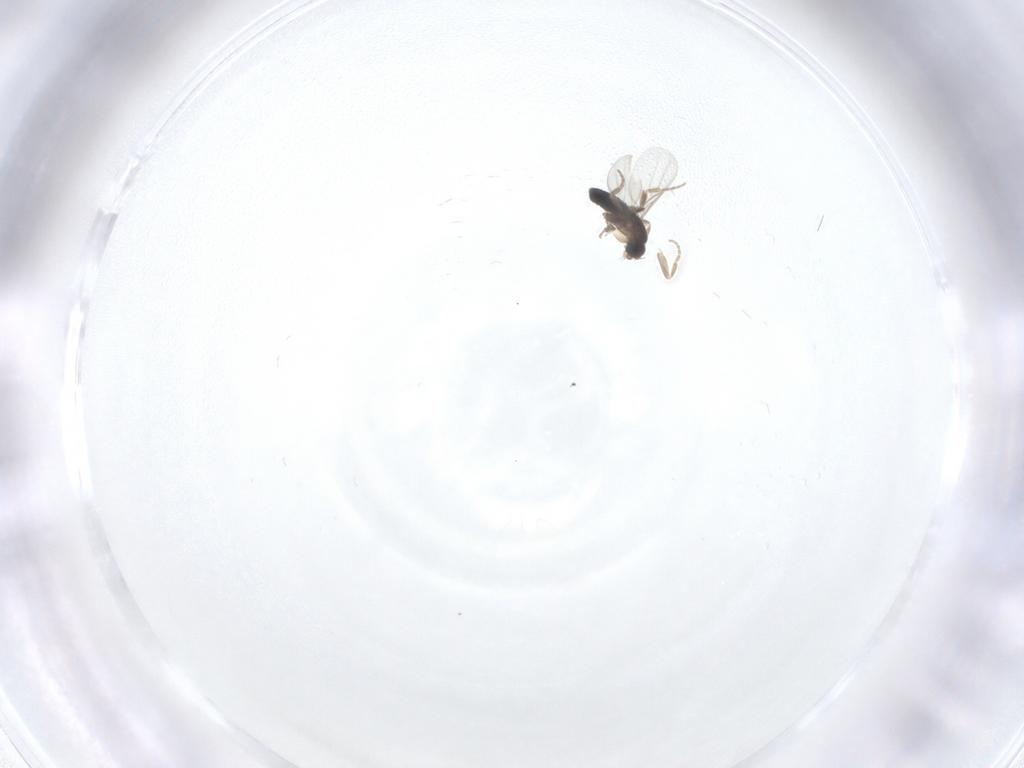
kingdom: Animalia
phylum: Arthropoda
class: Insecta
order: Diptera
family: Phoridae
